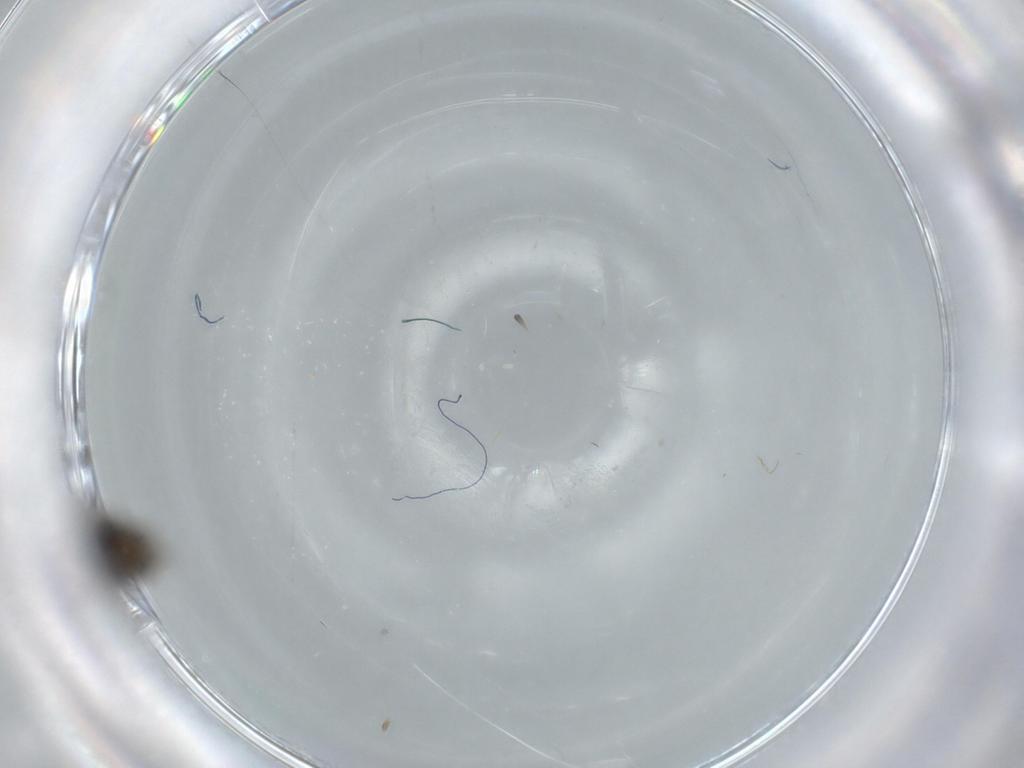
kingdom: Animalia
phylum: Arthropoda
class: Insecta
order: Diptera
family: Ceratopogonidae
